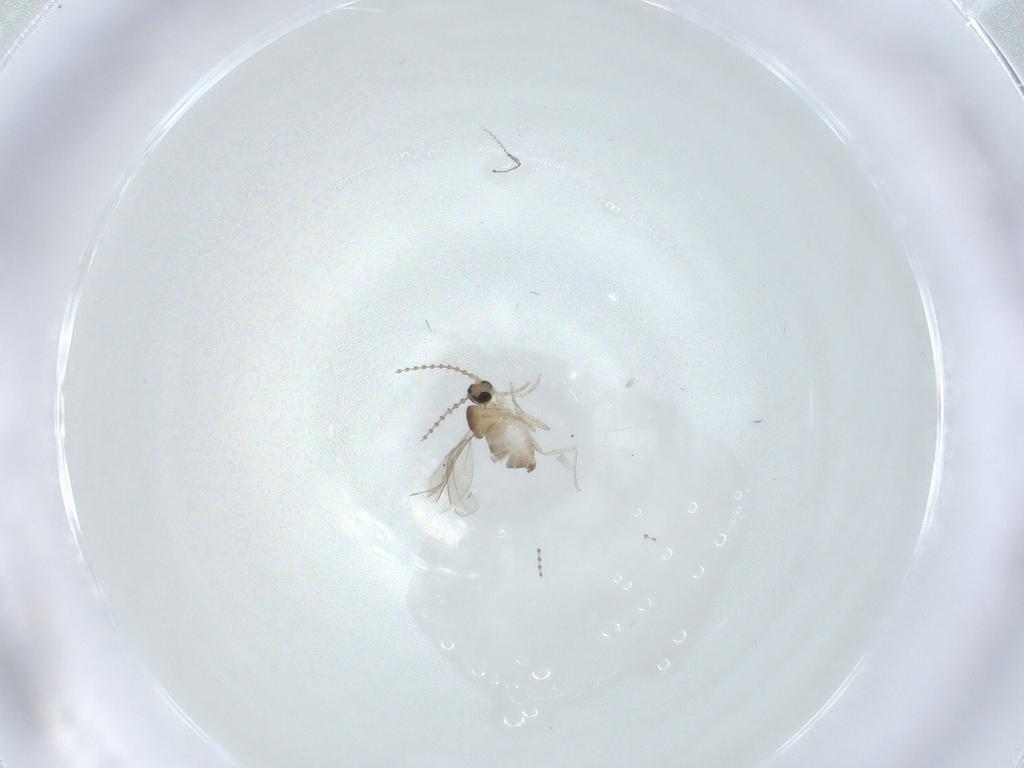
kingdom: Animalia
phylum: Arthropoda
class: Insecta
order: Diptera
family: Cecidomyiidae
